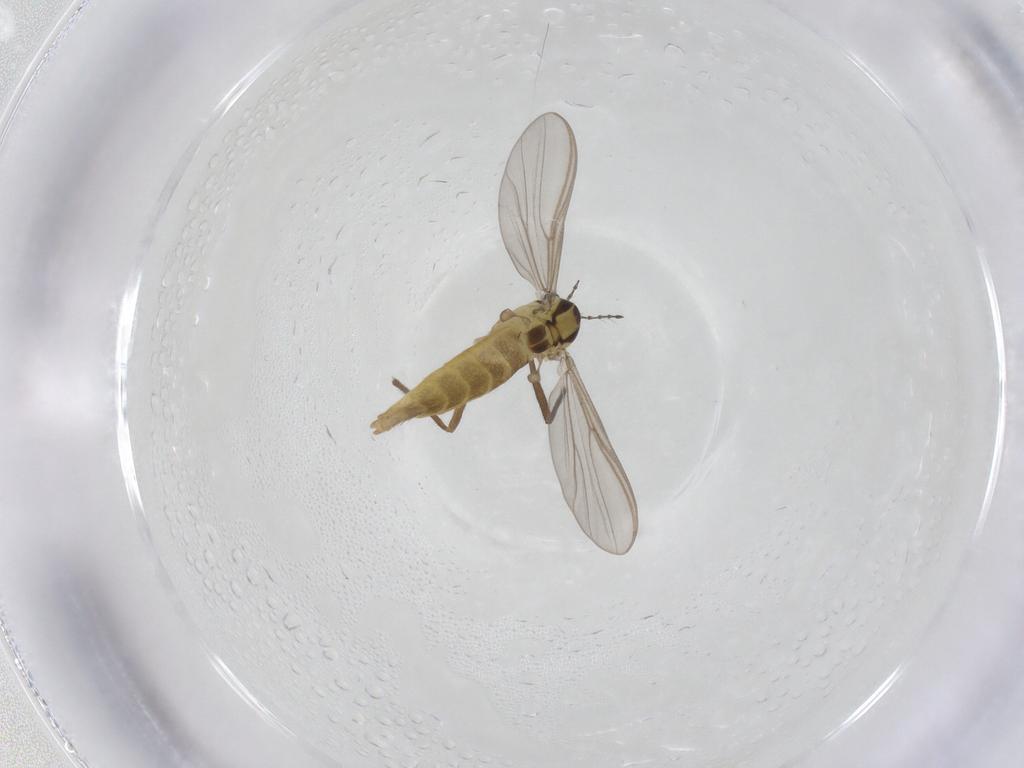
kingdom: Animalia
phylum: Arthropoda
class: Insecta
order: Diptera
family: Chironomidae
